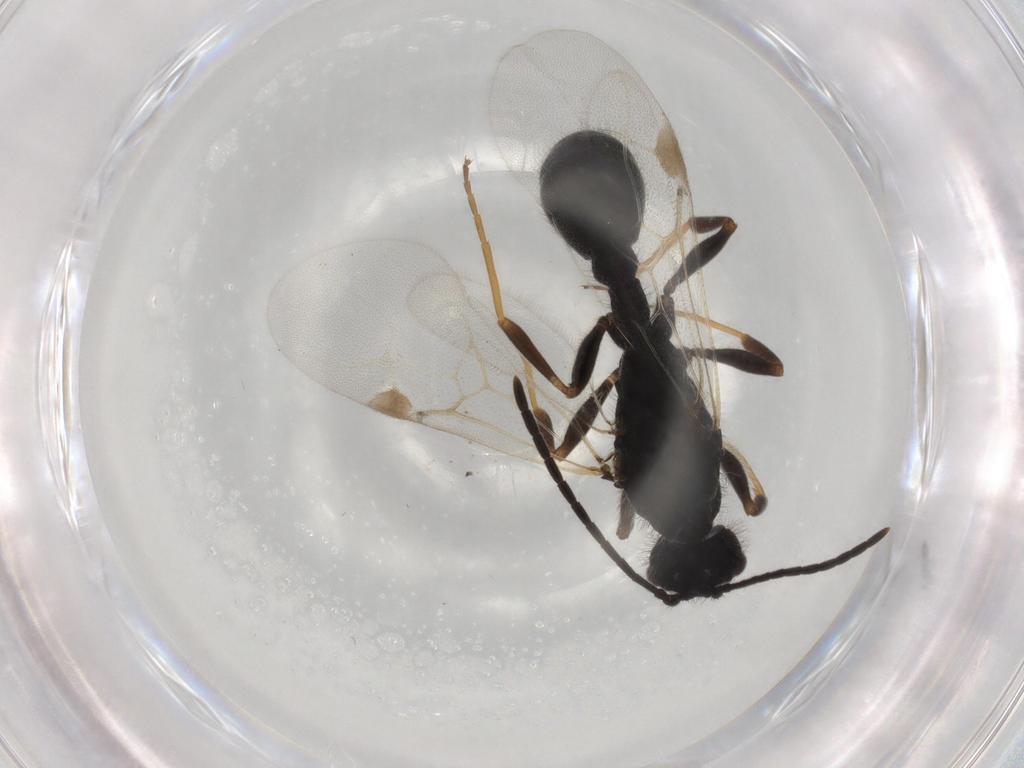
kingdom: Animalia
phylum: Arthropoda
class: Insecta
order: Hymenoptera
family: Formicidae
